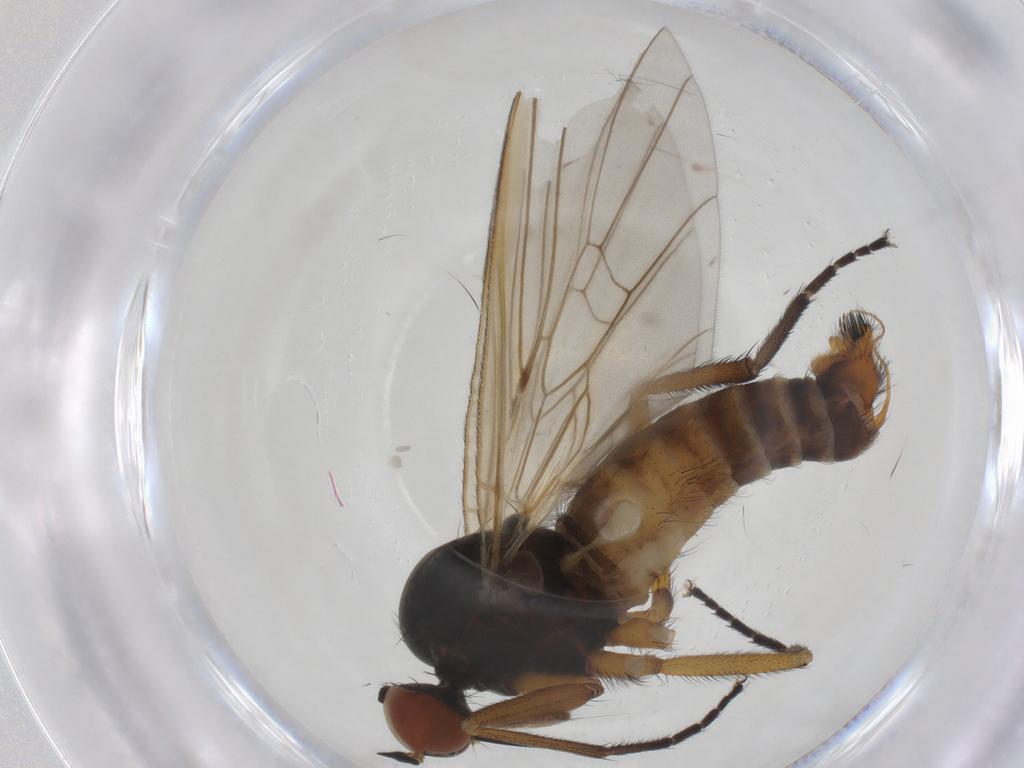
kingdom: Animalia
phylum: Arthropoda
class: Insecta
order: Diptera
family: Empididae
